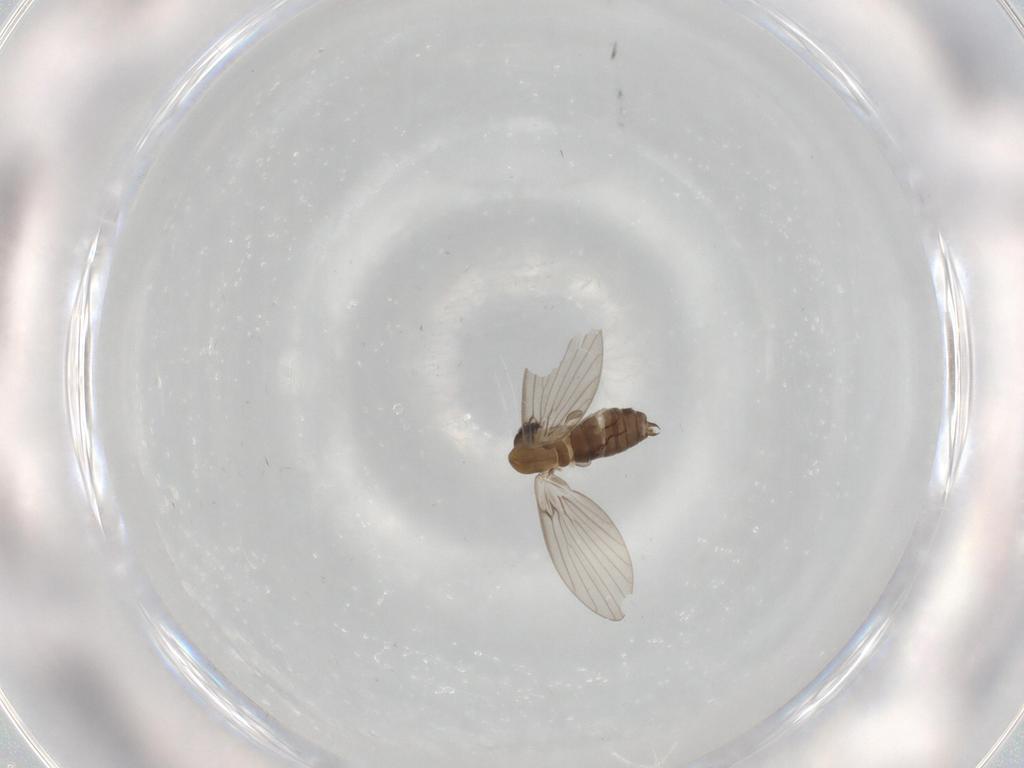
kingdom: Animalia
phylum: Arthropoda
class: Insecta
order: Diptera
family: Psychodidae
